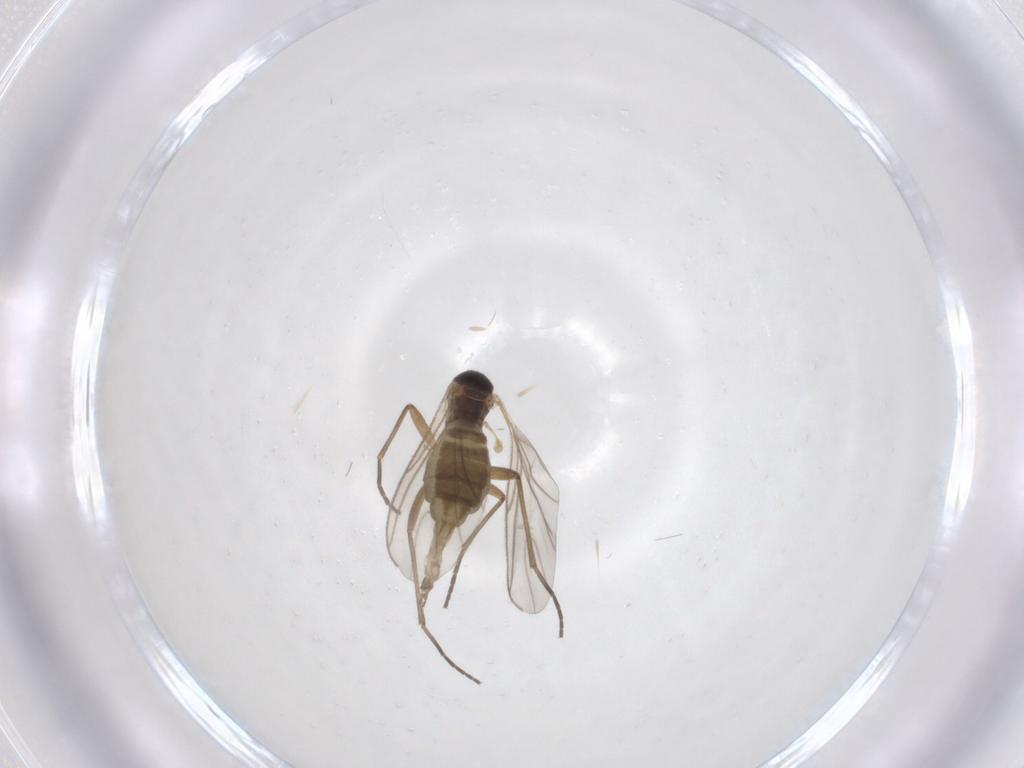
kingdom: Animalia
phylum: Arthropoda
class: Insecta
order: Diptera
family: Sciaridae
